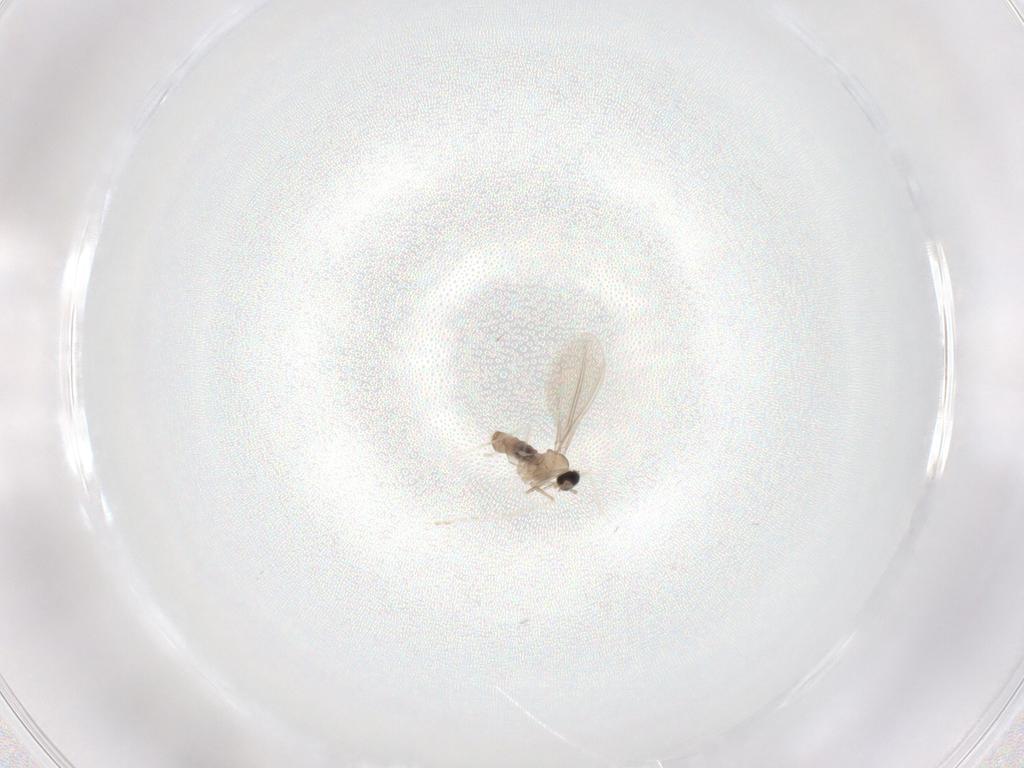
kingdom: Animalia
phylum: Arthropoda
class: Insecta
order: Diptera
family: Cecidomyiidae
